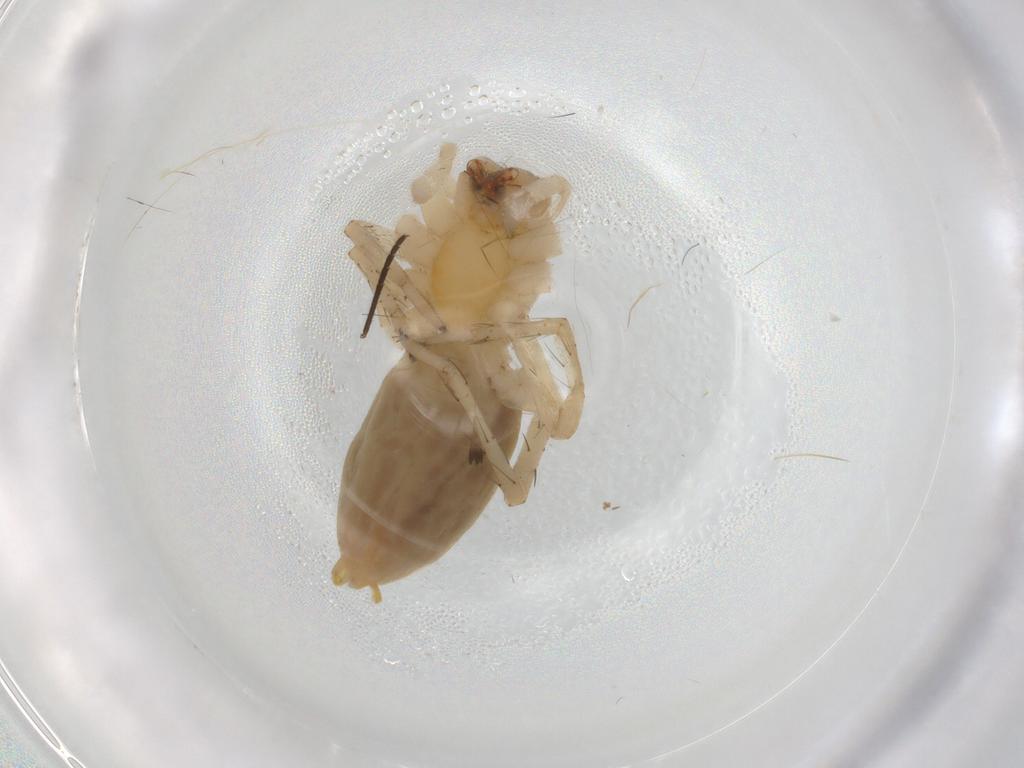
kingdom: Animalia
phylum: Arthropoda
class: Arachnida
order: Araneae
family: Anyphaenidae
